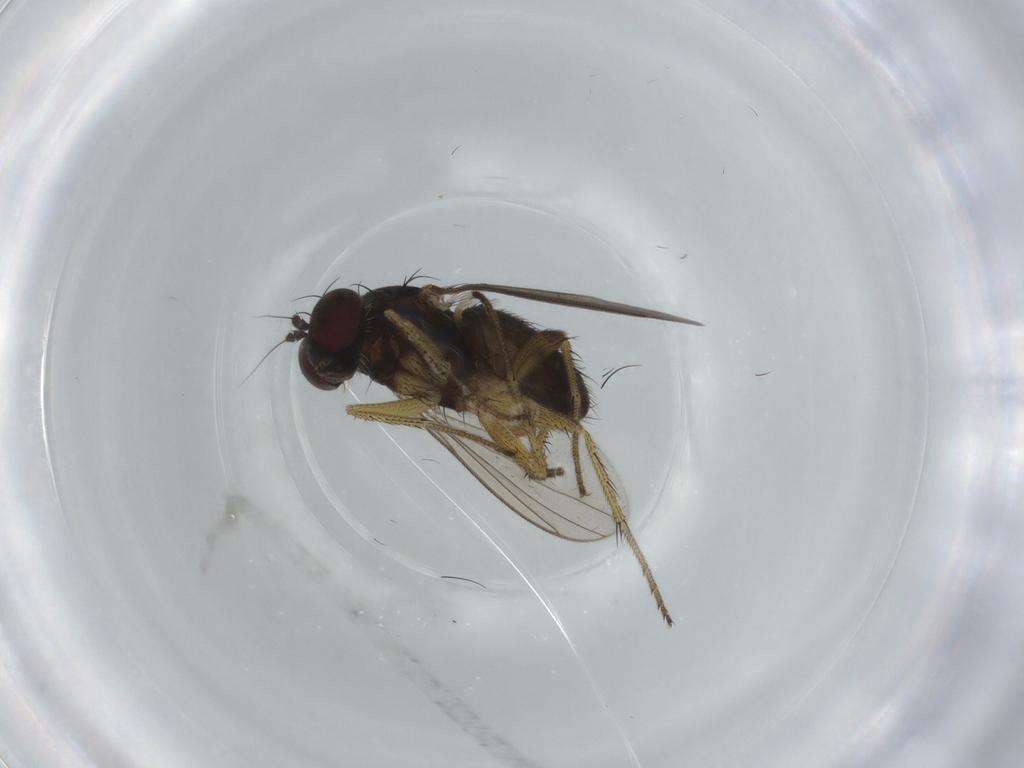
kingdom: Animalia
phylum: Arthropoda
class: Insecta
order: Diptera
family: Dolichopodidae
